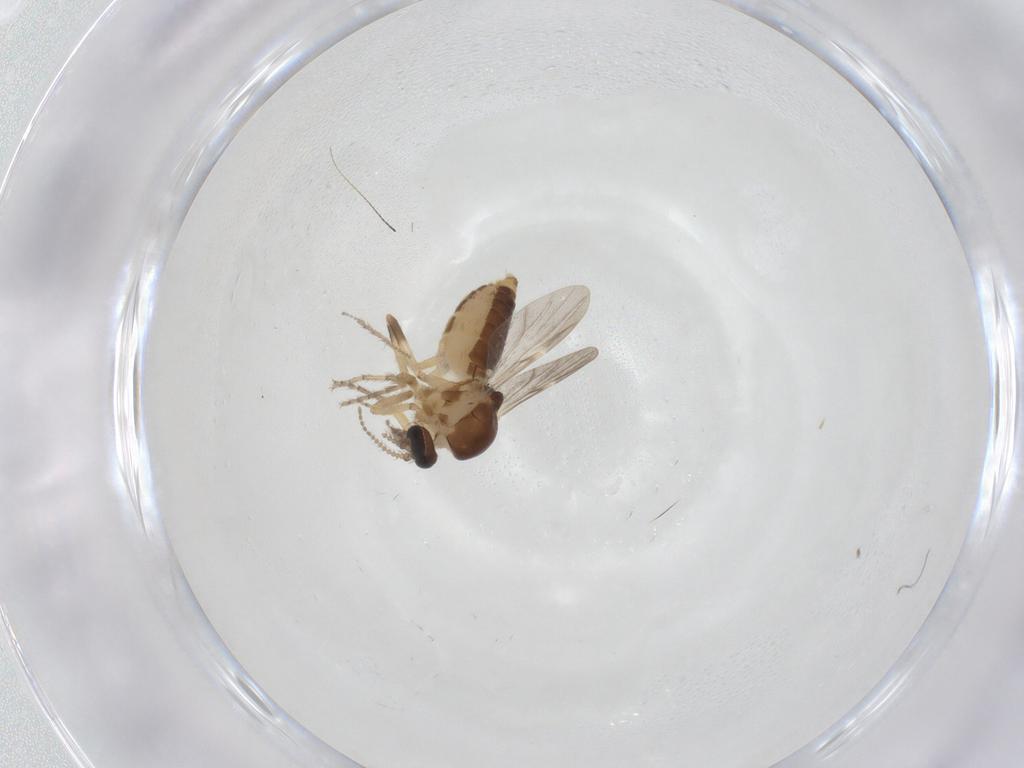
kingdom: Animalia
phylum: Arthropoda
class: Insecta
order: Diptera
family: Ceratopogonidae
